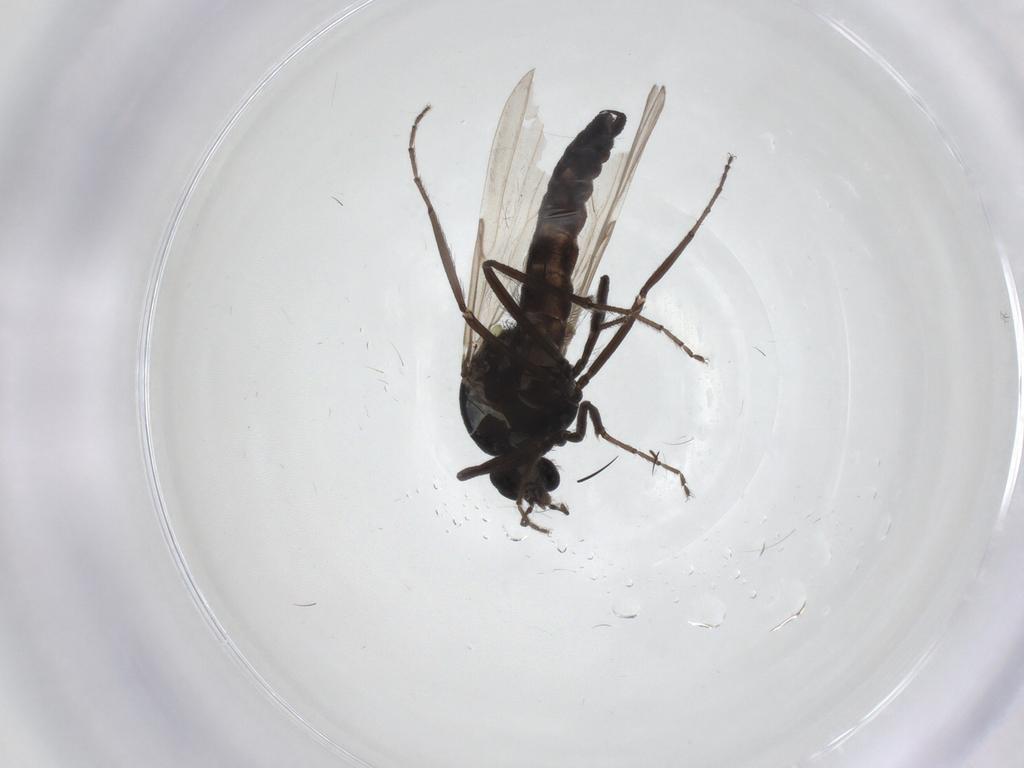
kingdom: Animalia
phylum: Arthropoda
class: Insecta
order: Diptera
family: Ceratopogonidae
